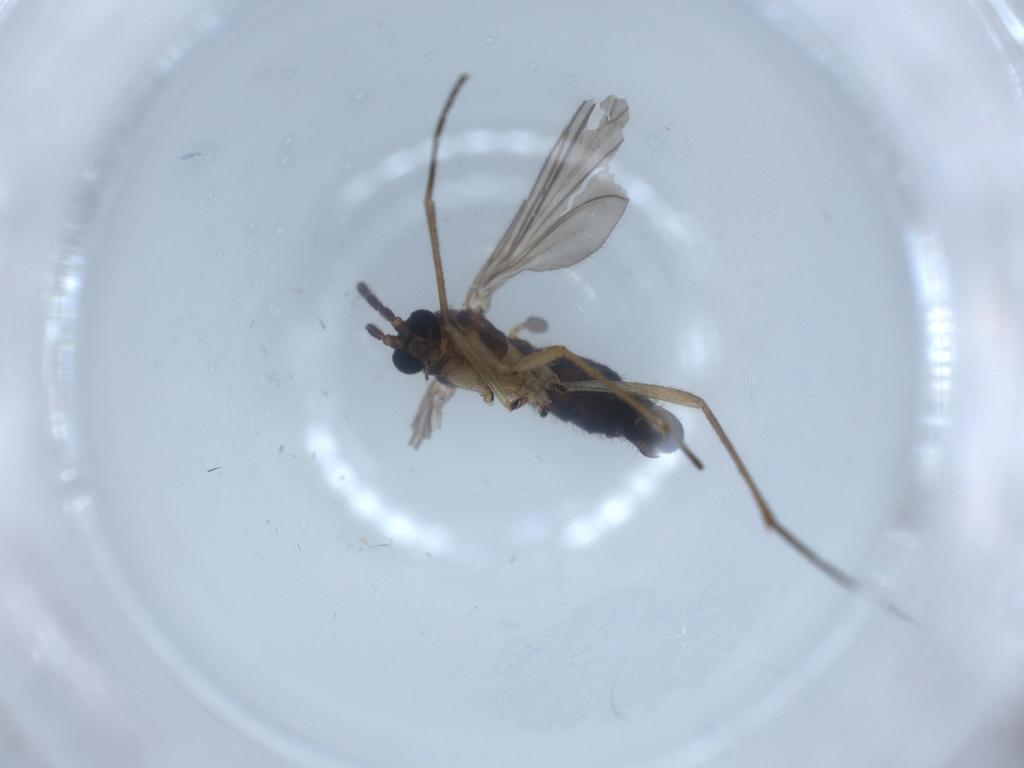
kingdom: Animalia
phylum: Arthropoda
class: Insecta
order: Diptera
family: Sciaridae
